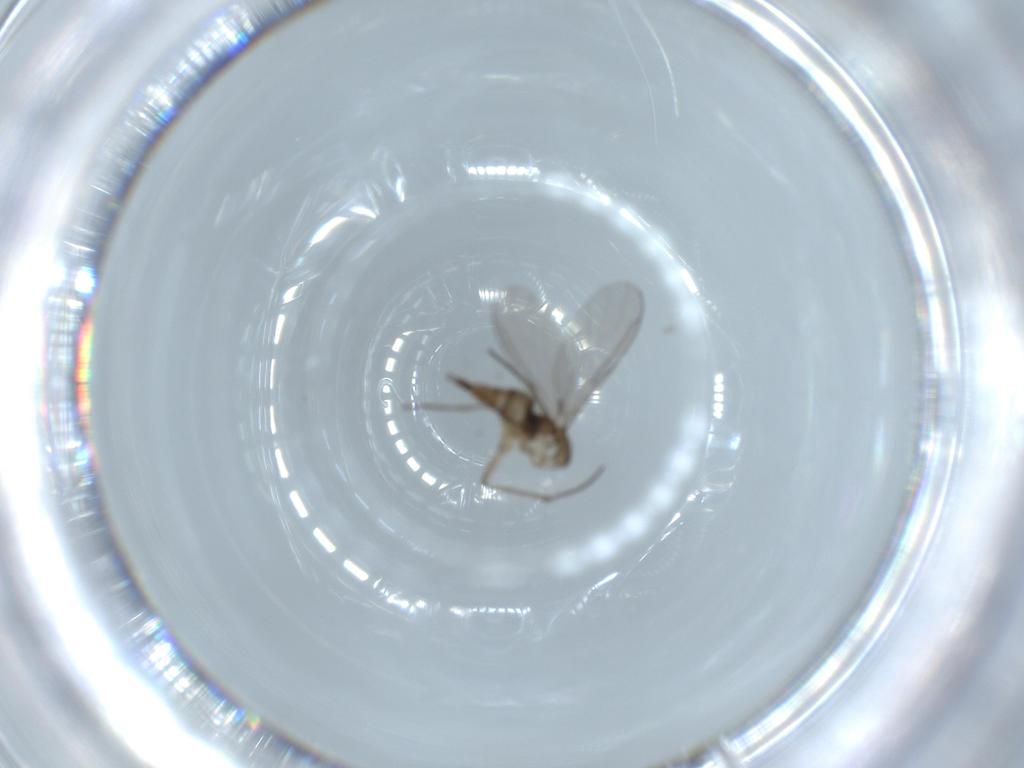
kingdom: Animalia
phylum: Arthropoda
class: Insecta
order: Diptera
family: Sciaridae
